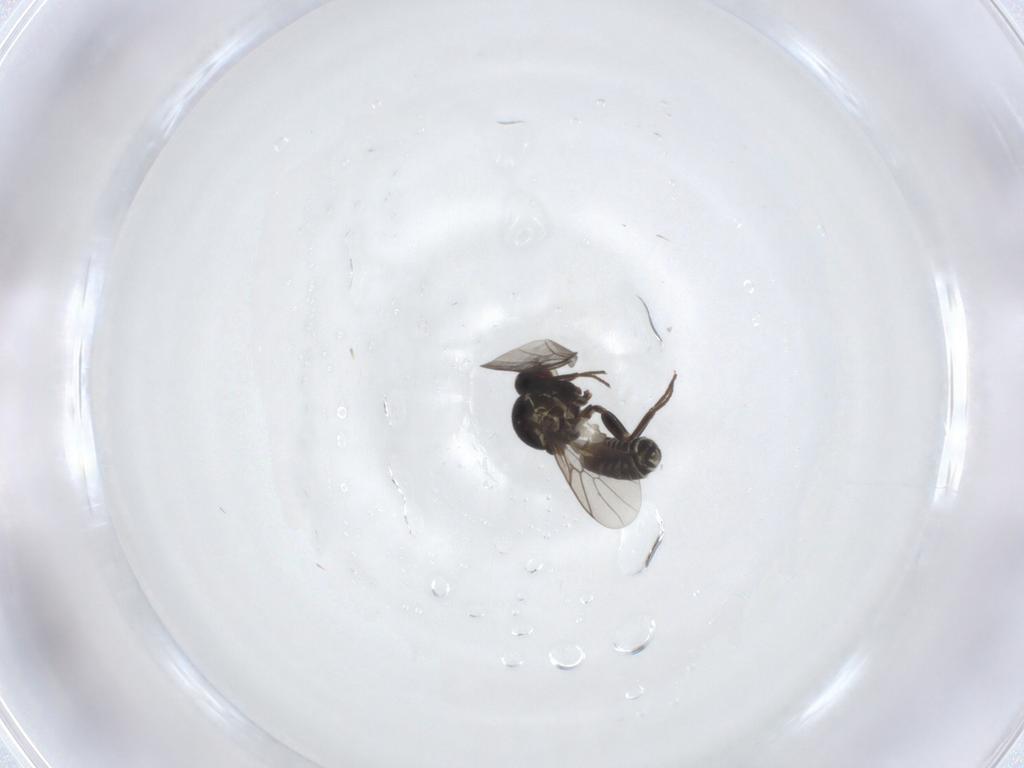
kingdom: Animalia
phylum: Arthropoda
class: Insecta
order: Diptera
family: Mythicomyiidae
